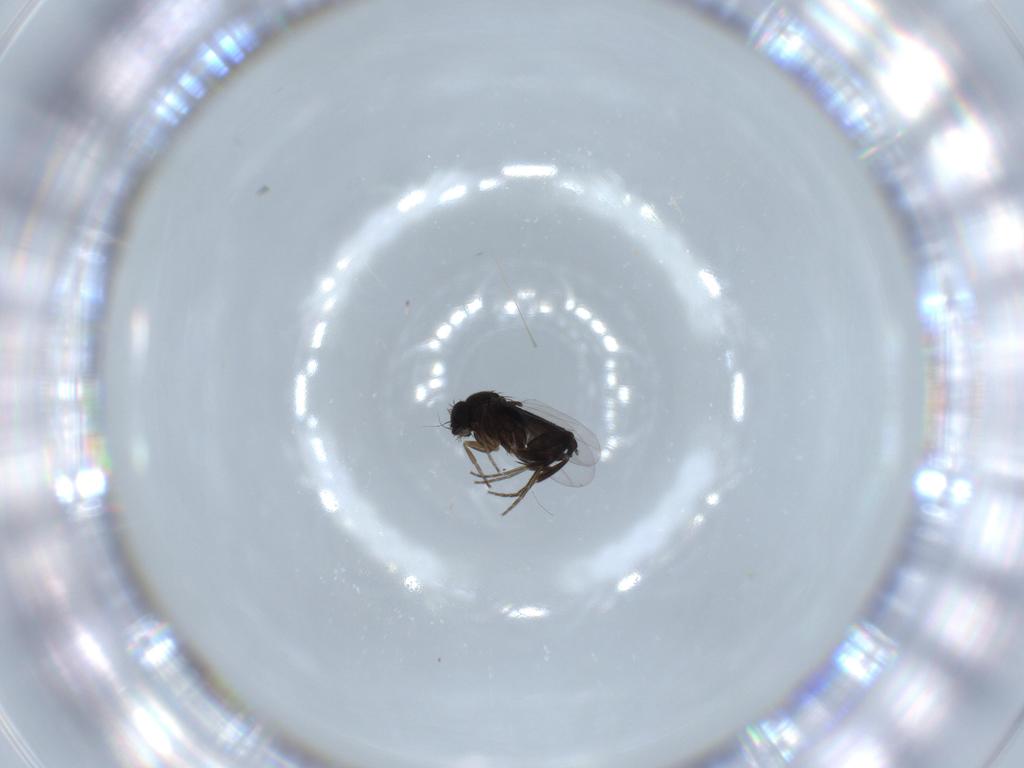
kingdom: Animalia
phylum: Arthropoda
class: Insecta
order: Diptera
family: Phoridae
